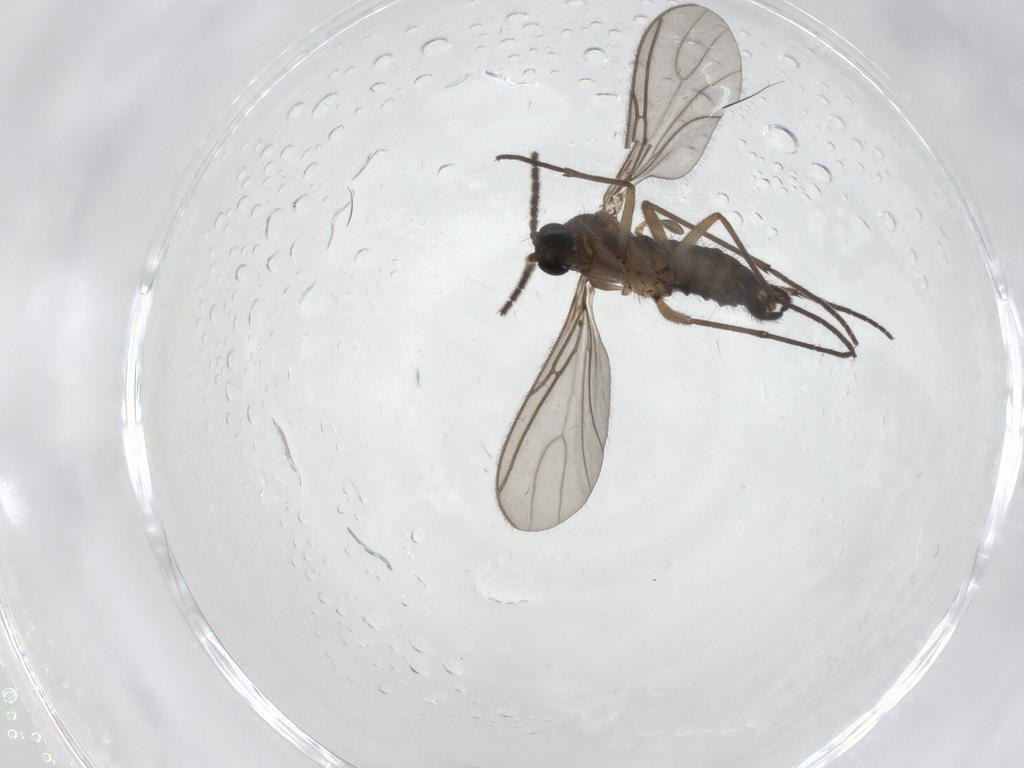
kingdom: Animalia
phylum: Arthropoda
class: Insecta
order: Diptera
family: Sciaridae
